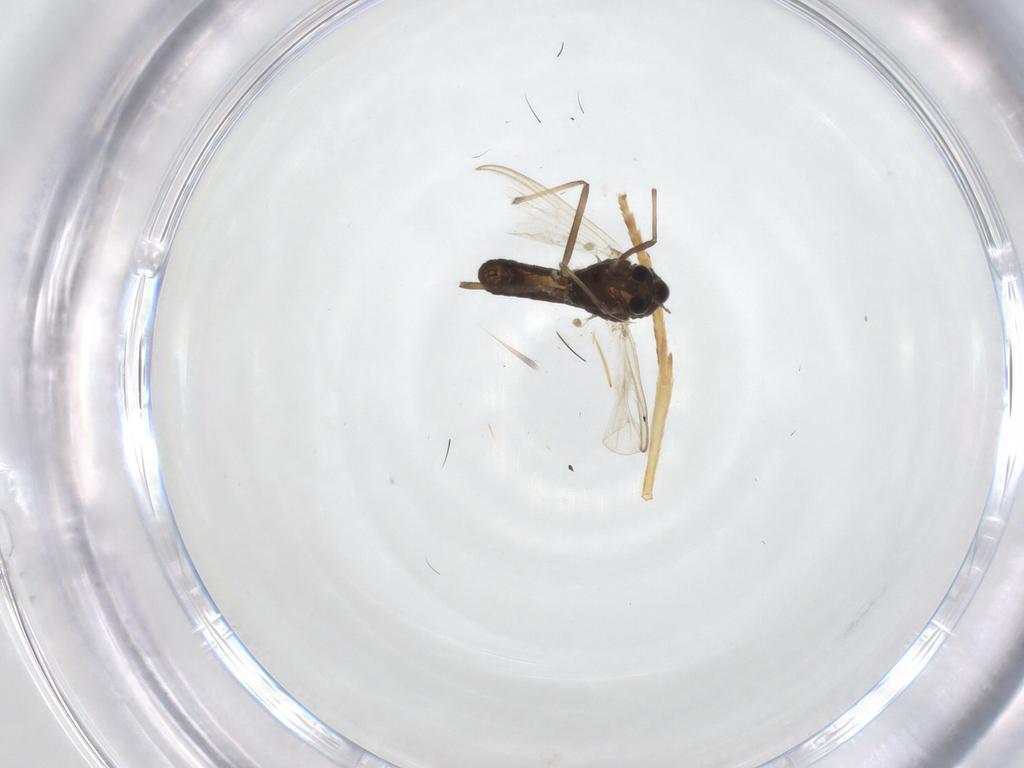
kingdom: Animalia
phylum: Arthropoda
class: Insecta
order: Diptera
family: Chironomidae
